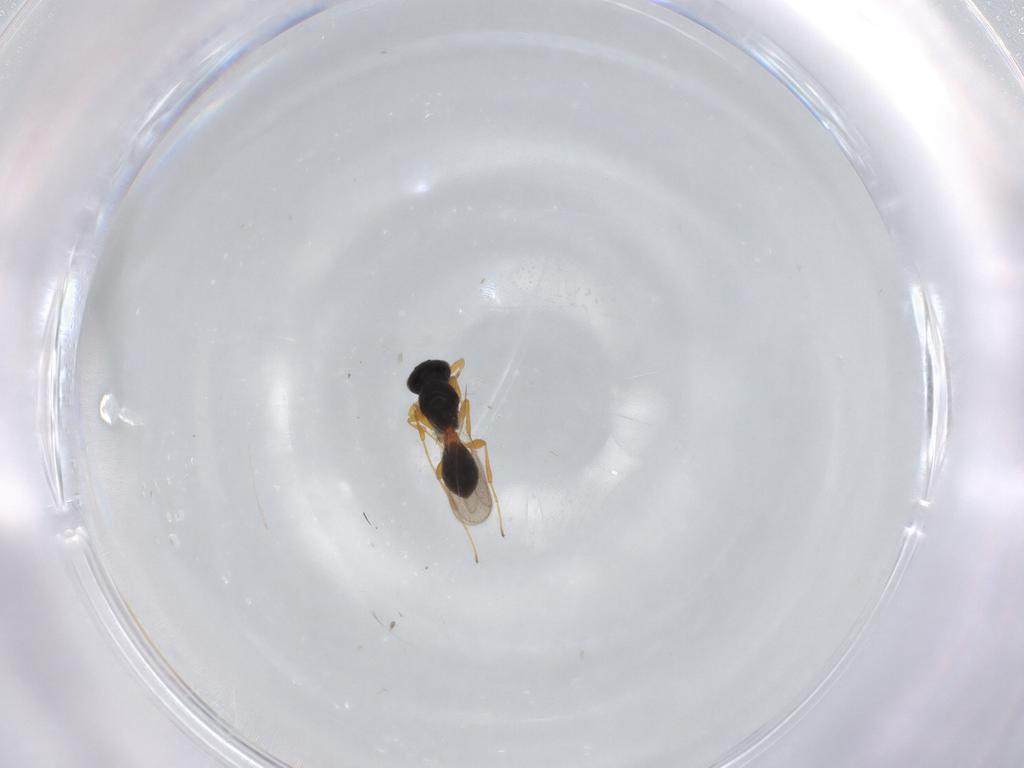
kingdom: Animalia
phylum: Arthropoda
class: Insecta
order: Hymenoptera
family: Platygastridae
